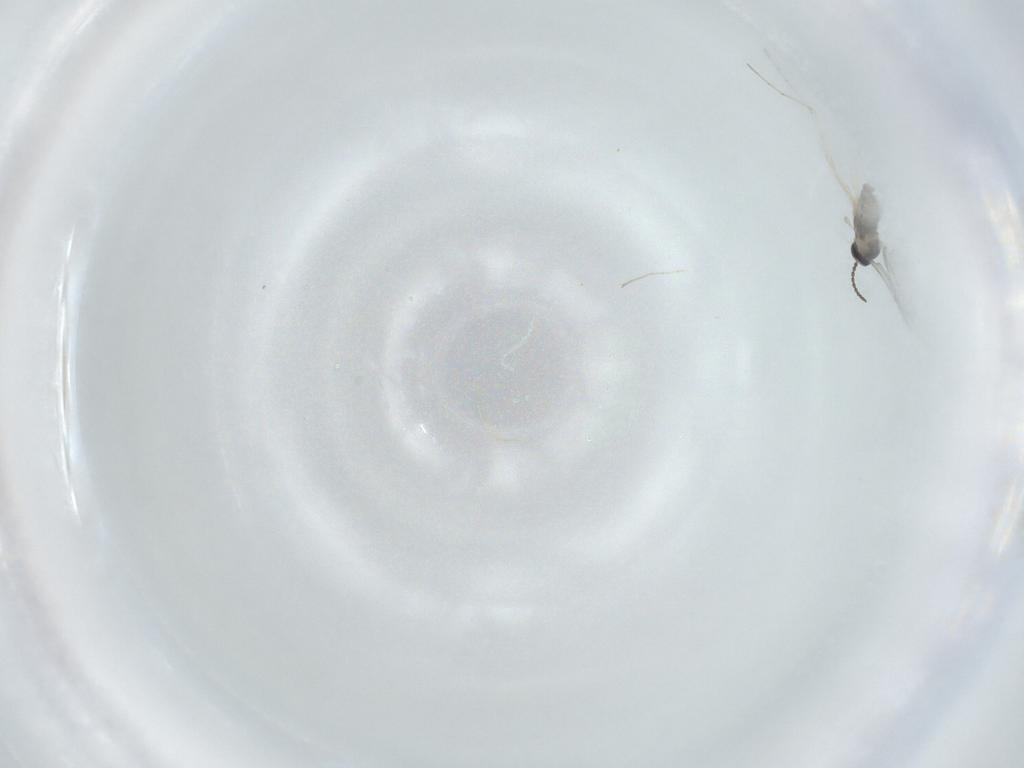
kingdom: Animalia
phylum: Arthropoda
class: Insecta
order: Diptera
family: Cecidomyiidae
